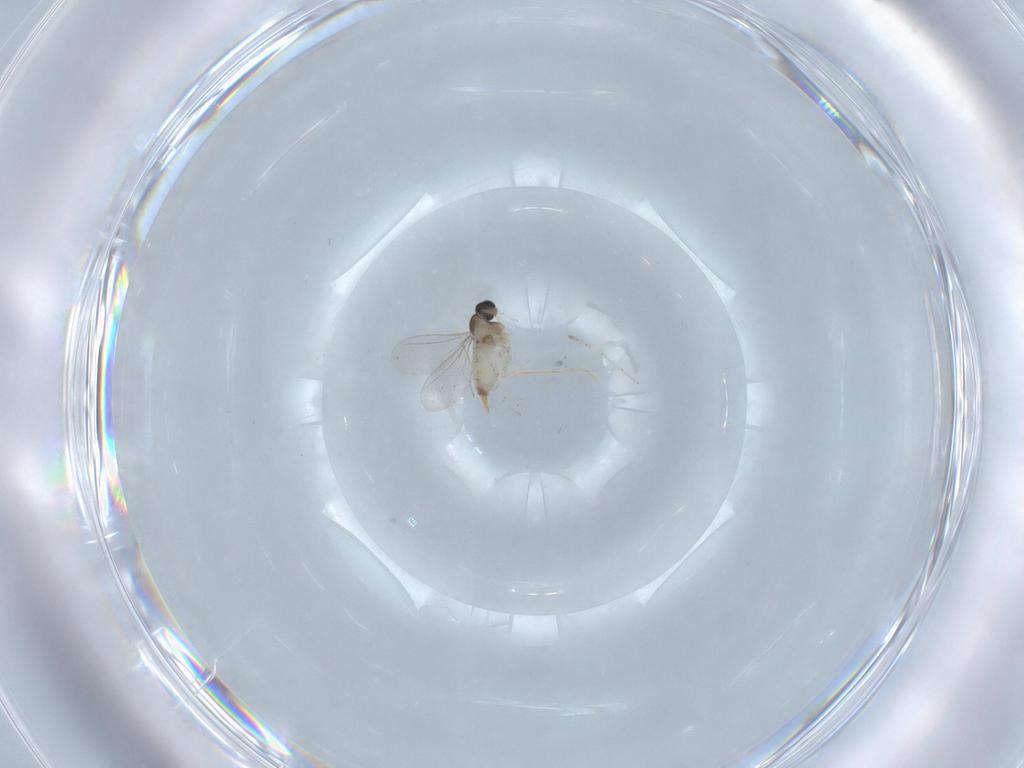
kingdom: Animalia
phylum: Arthropoda
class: Insecta
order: Diptera
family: Cecidomyiidae
